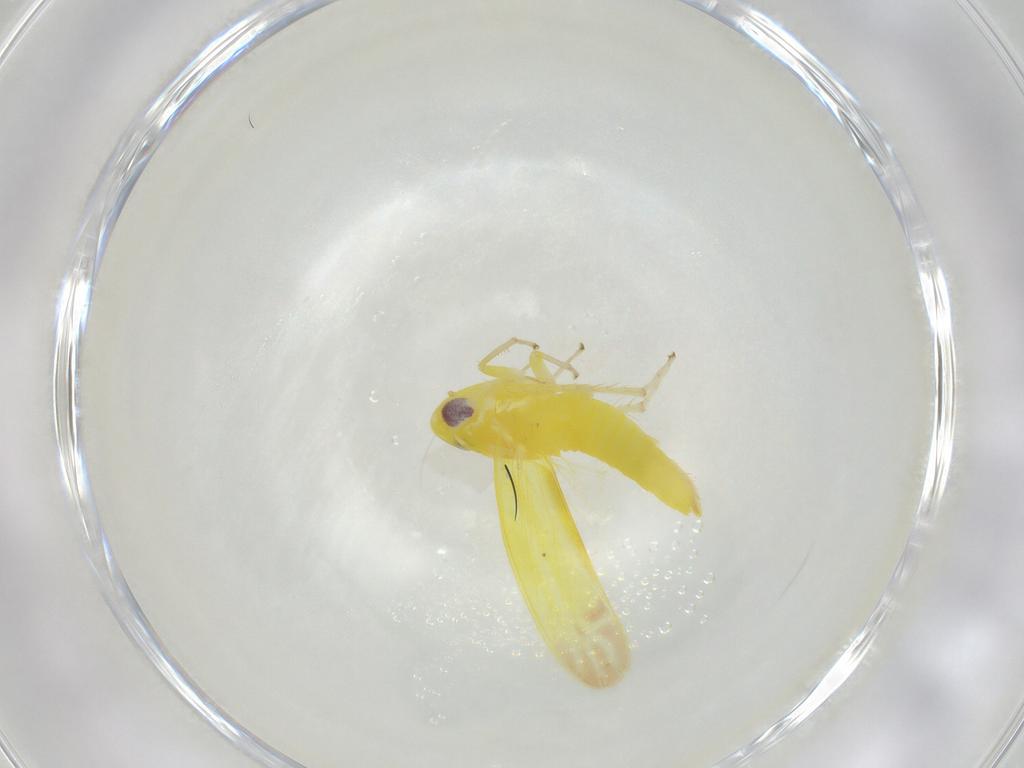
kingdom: Animalia
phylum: Arthropoda
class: Insecta
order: Hemiptera
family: Cicadellidae
